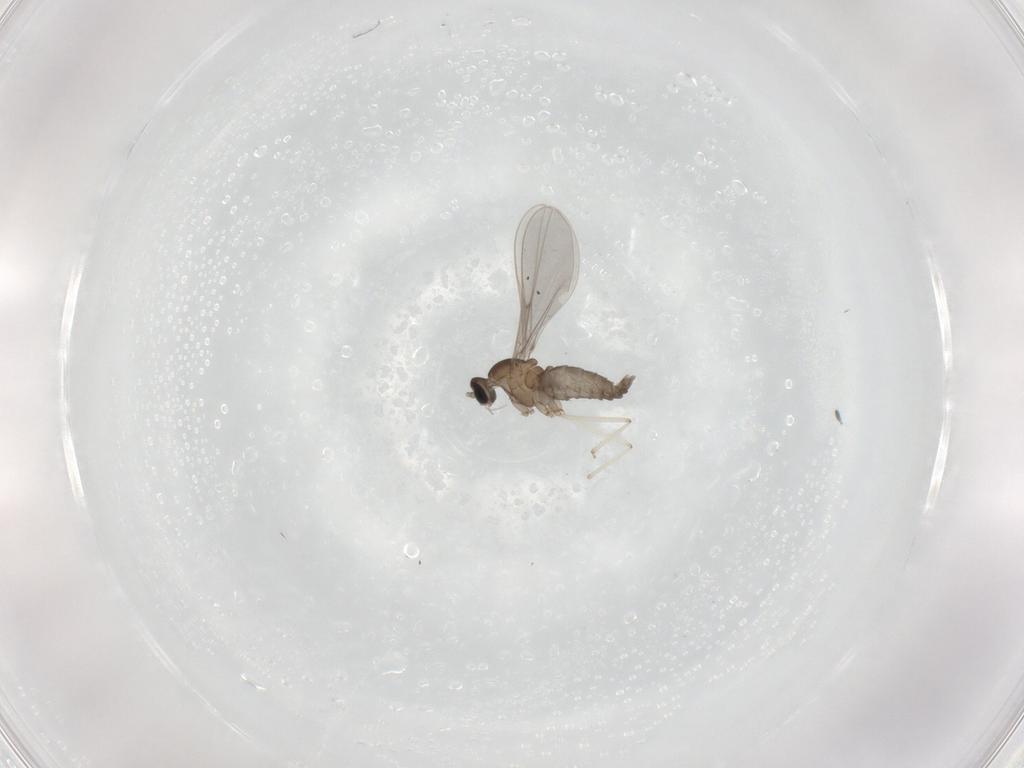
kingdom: Animalia
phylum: Arthropoda
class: Insecta
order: Diptera
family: Cecidomyiidae
